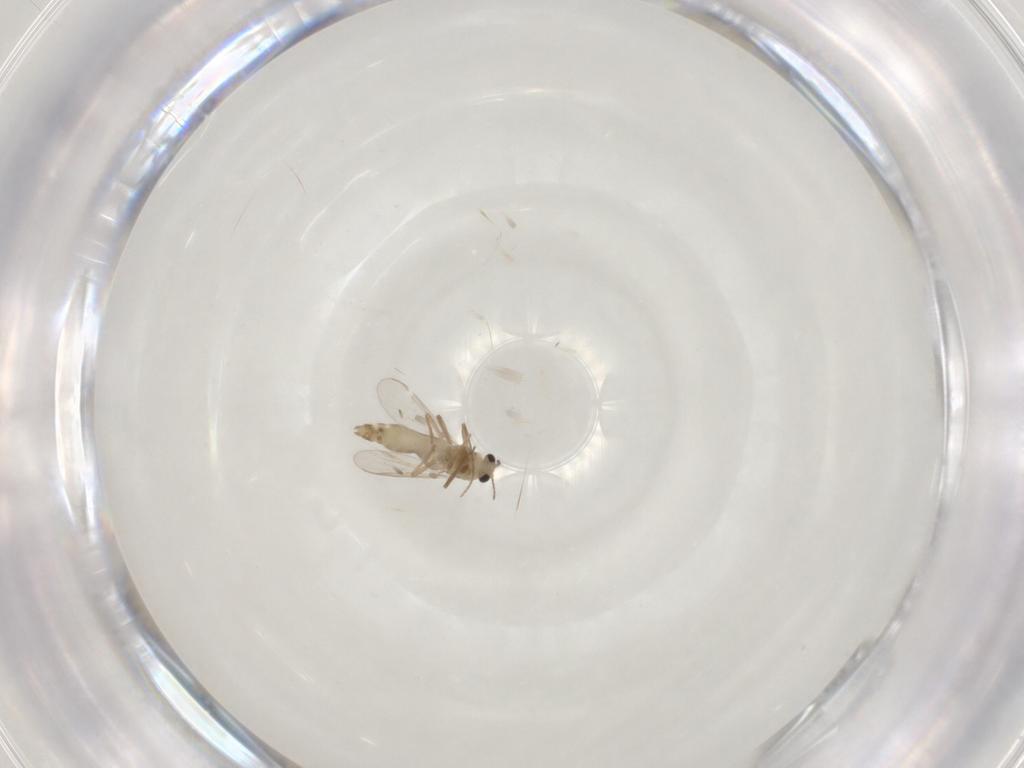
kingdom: Animalia
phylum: Arthropoda
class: Insecta
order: Diptera
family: Chironomidae
